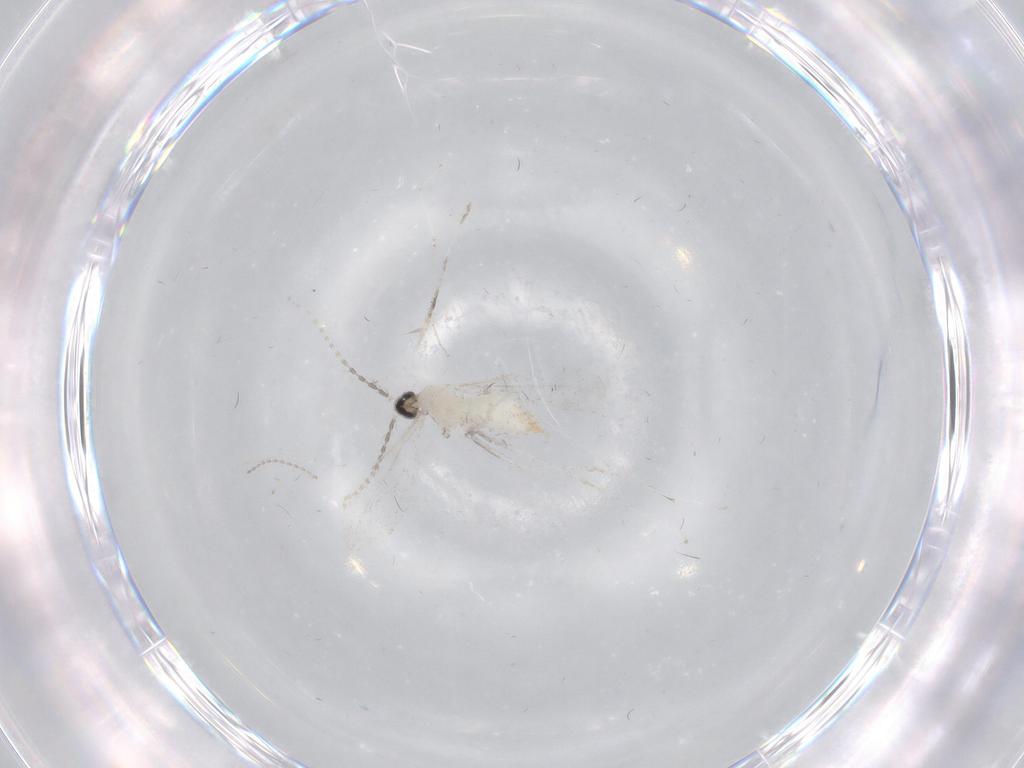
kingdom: Animalia
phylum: Arthropoda
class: Insecta
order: Diptera
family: Cecidomyiidae
